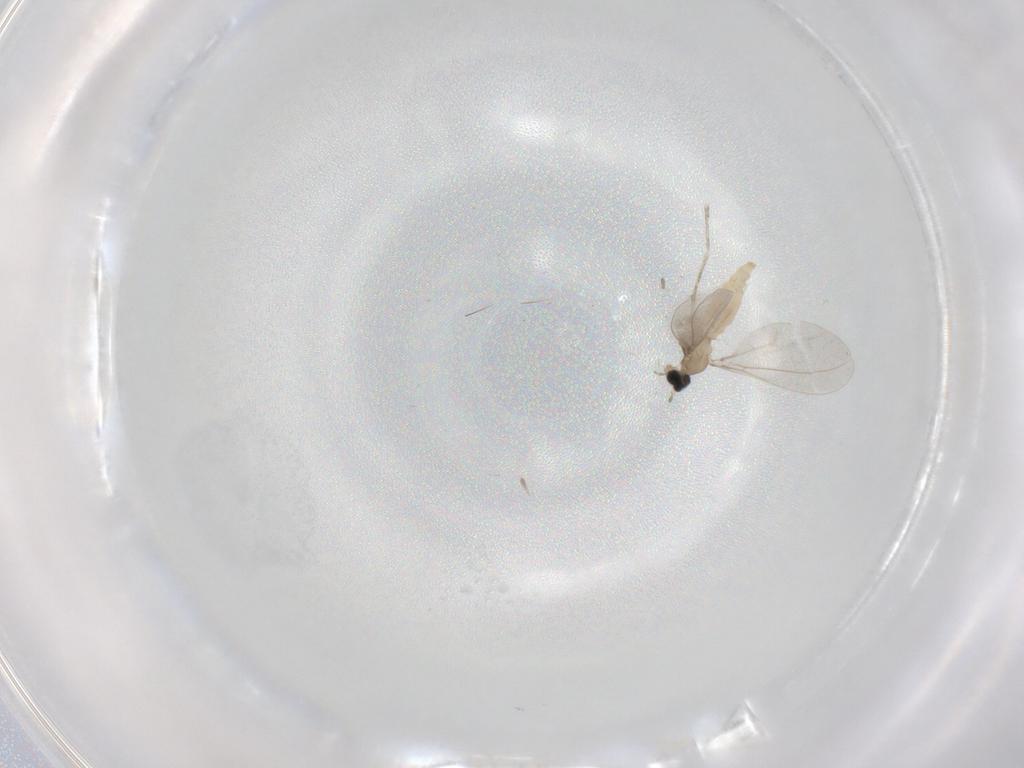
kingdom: Animalia
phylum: Arthropoda
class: Insecta
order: Diptera
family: Cecidomyiidae
